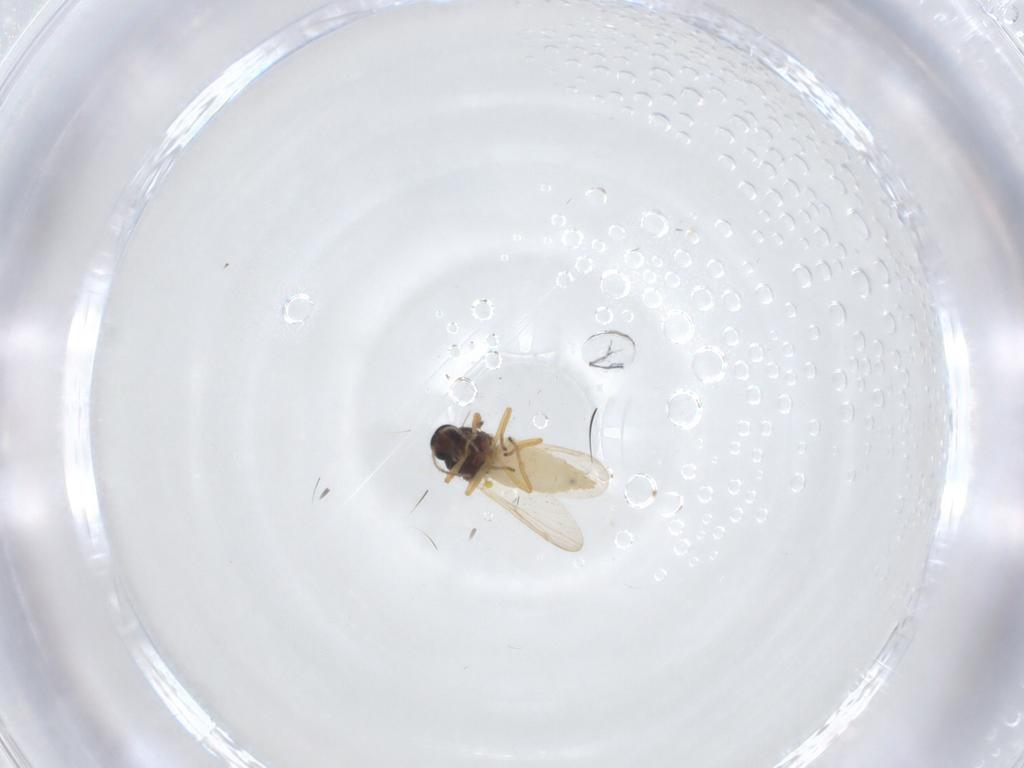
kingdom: Animalia
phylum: Arthropoda
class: Insecta
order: Diptera
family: Ceratopogonidae
